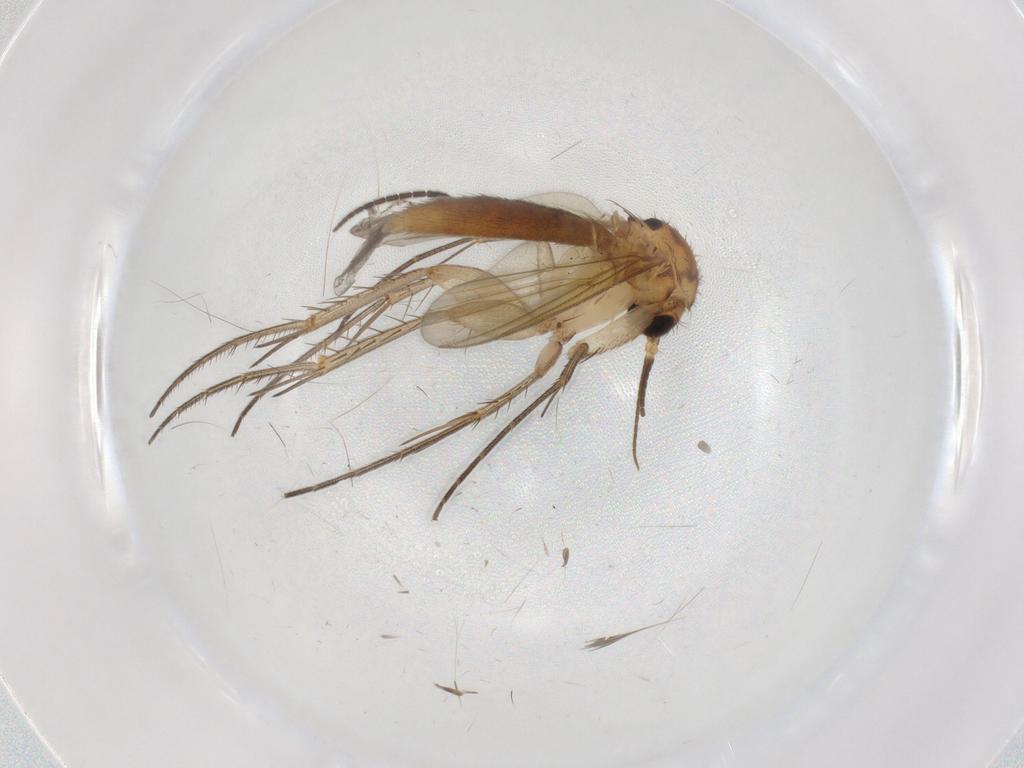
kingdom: Animalia
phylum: Arthropoda
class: Insecta
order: Diptera
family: Mycetophilidae
